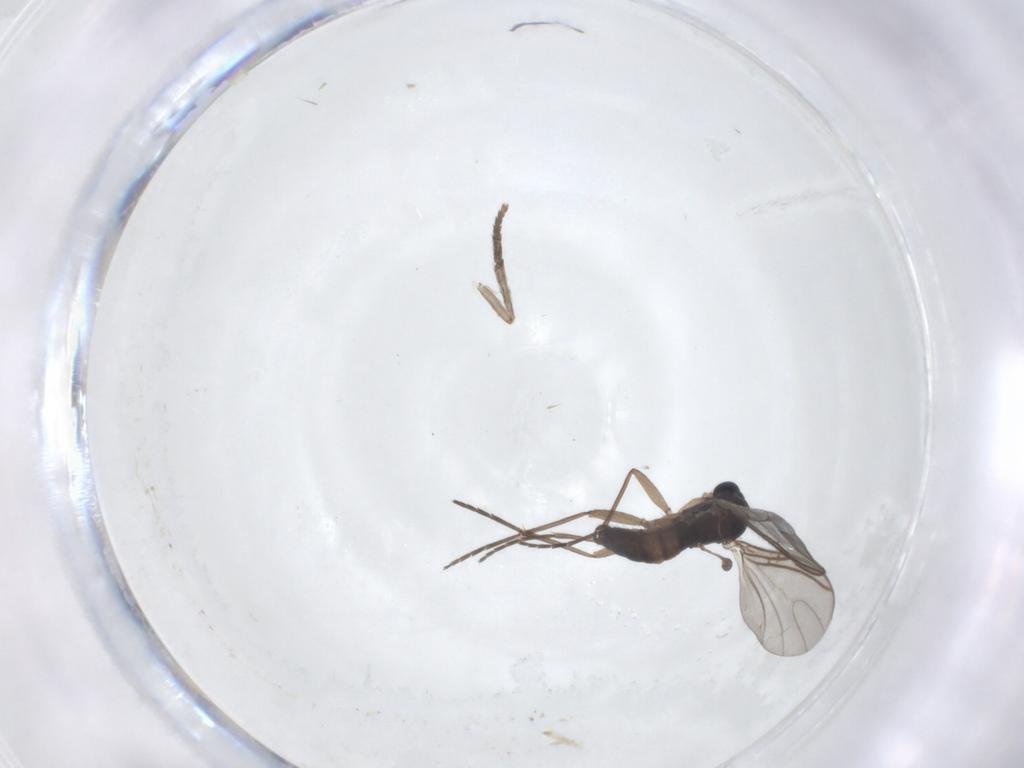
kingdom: Animalia
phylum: Arthropoda
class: Insecta
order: Diptera
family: Sciaridae
